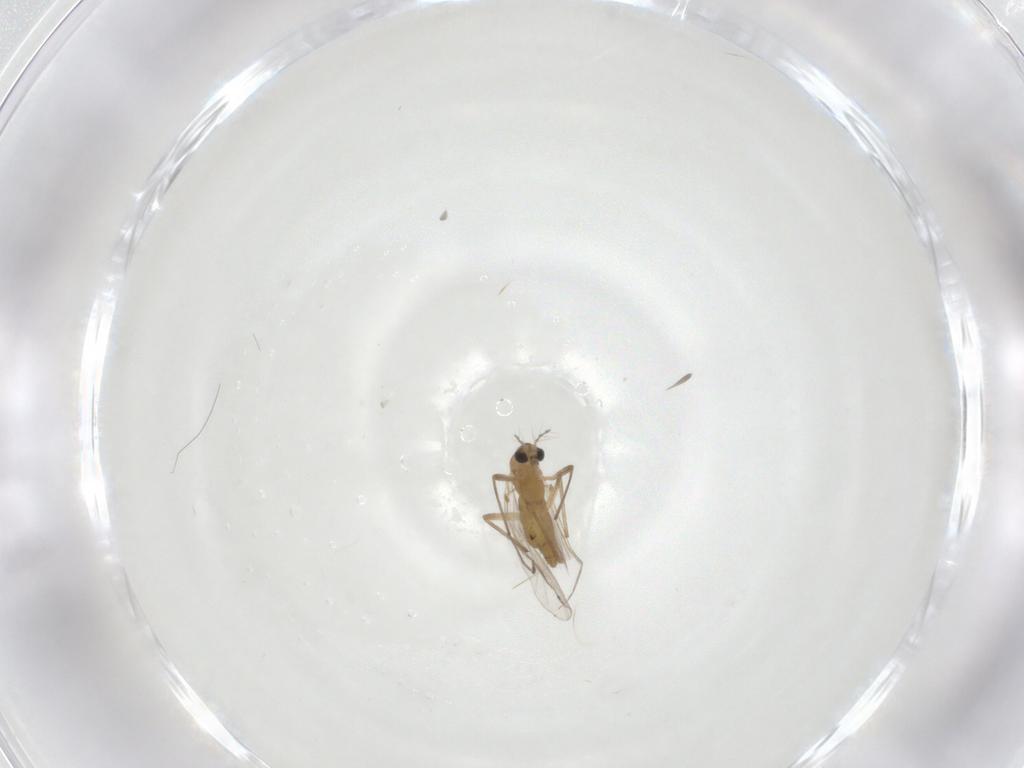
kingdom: Animalia
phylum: Arthropoda
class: Insecta
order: Diptera
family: Chironomidae
